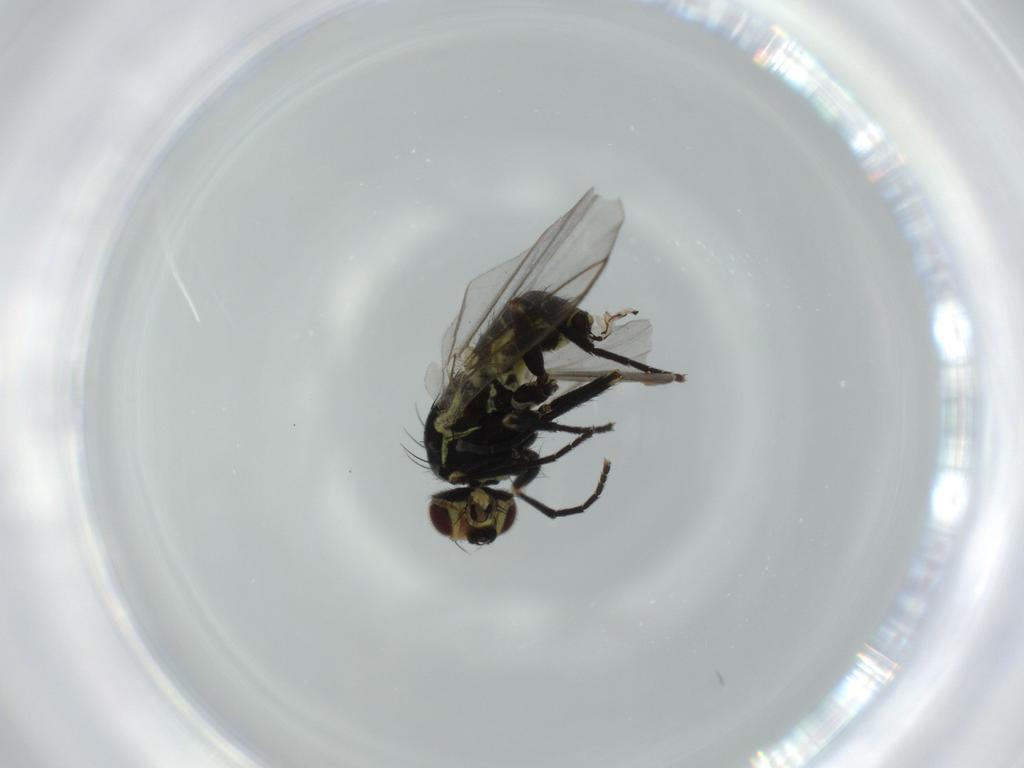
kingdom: Animalia
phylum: Arthropoda
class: Insecta
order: Diptera
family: Agromyzidae
